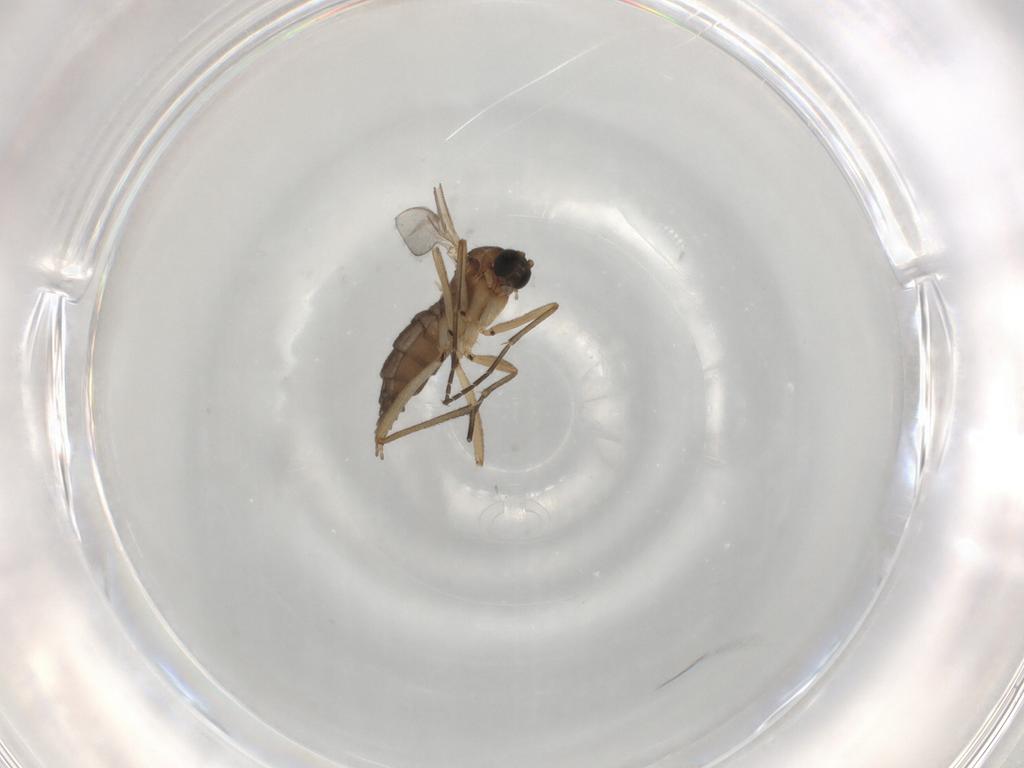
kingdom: Animalia
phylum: Arthropoda
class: Insecta
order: Diptera
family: Sciaridae
